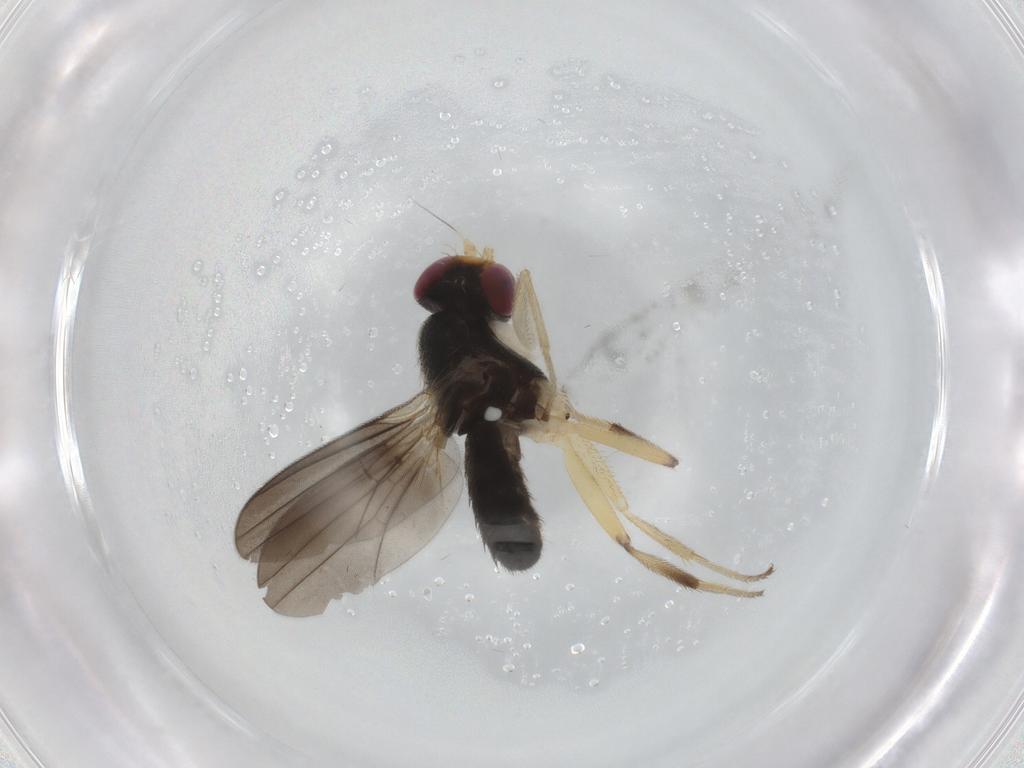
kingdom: Animalia
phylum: Arthropoda
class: Insecta
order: Diptera
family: Clusiidae
